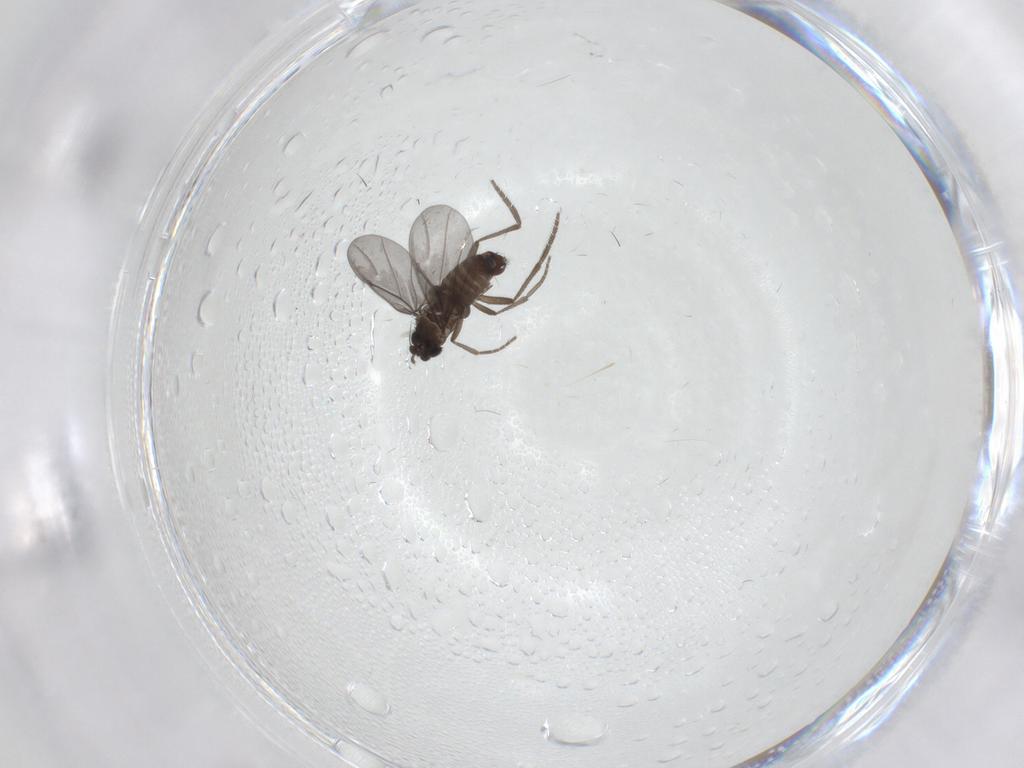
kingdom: Animalia
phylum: Arthropoda
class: Insecta
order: Diptera
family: Phoridae
